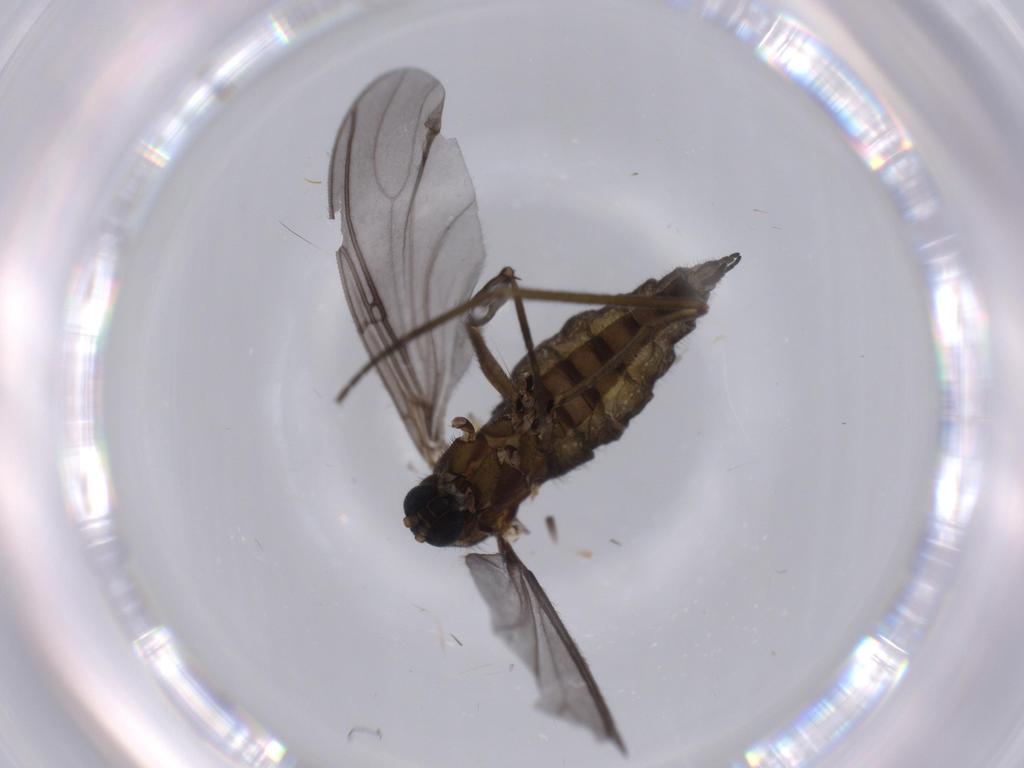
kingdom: Animalia
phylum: Arthropoda
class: Insecta
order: Diptera
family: Sciaridae
